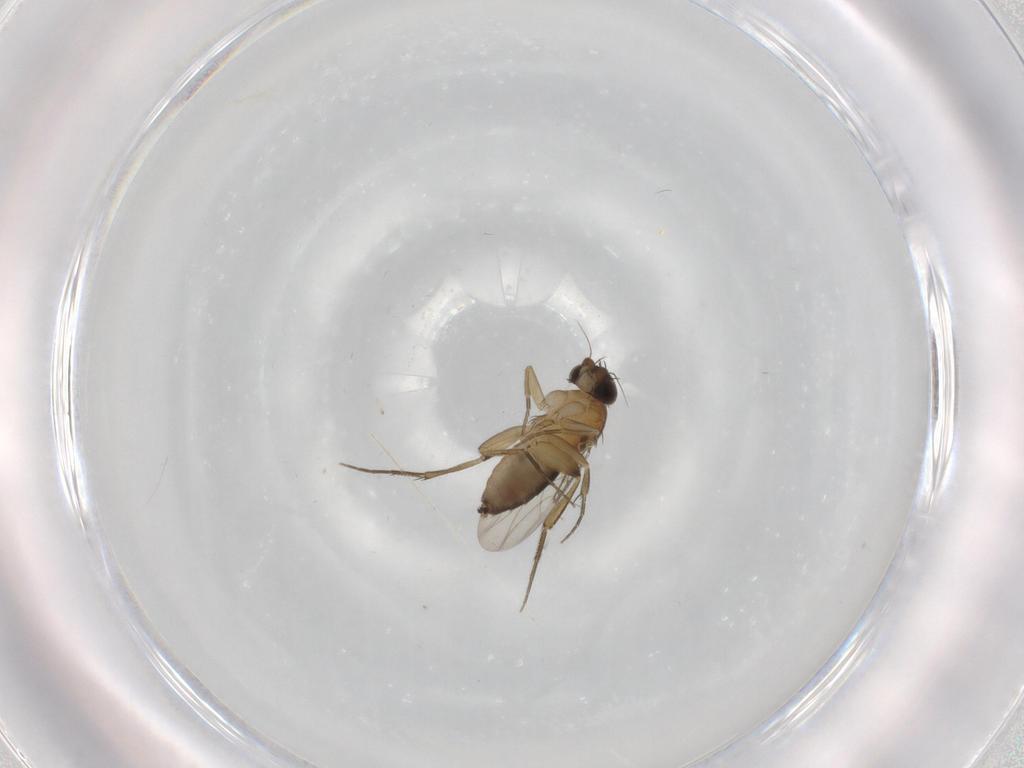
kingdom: Animalia
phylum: Arthropoda
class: Insecta
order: Diptera
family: Phoridae
